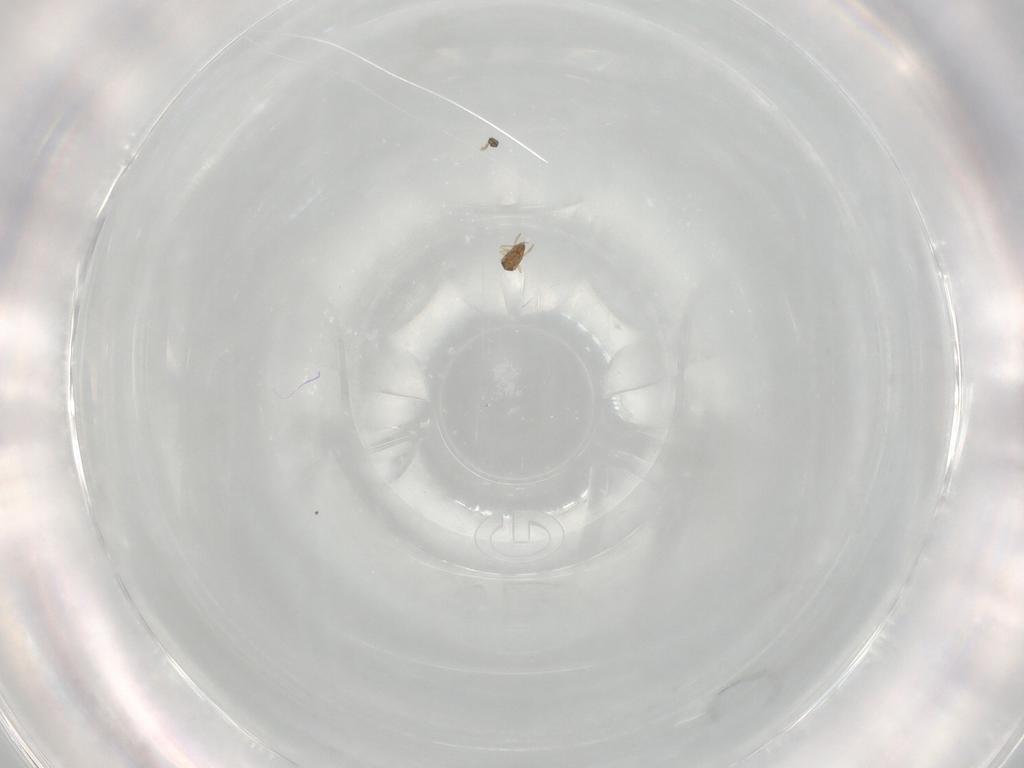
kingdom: Animalia
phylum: Arthropoda
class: Insecta
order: Hymenoptera
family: Mymaridae
